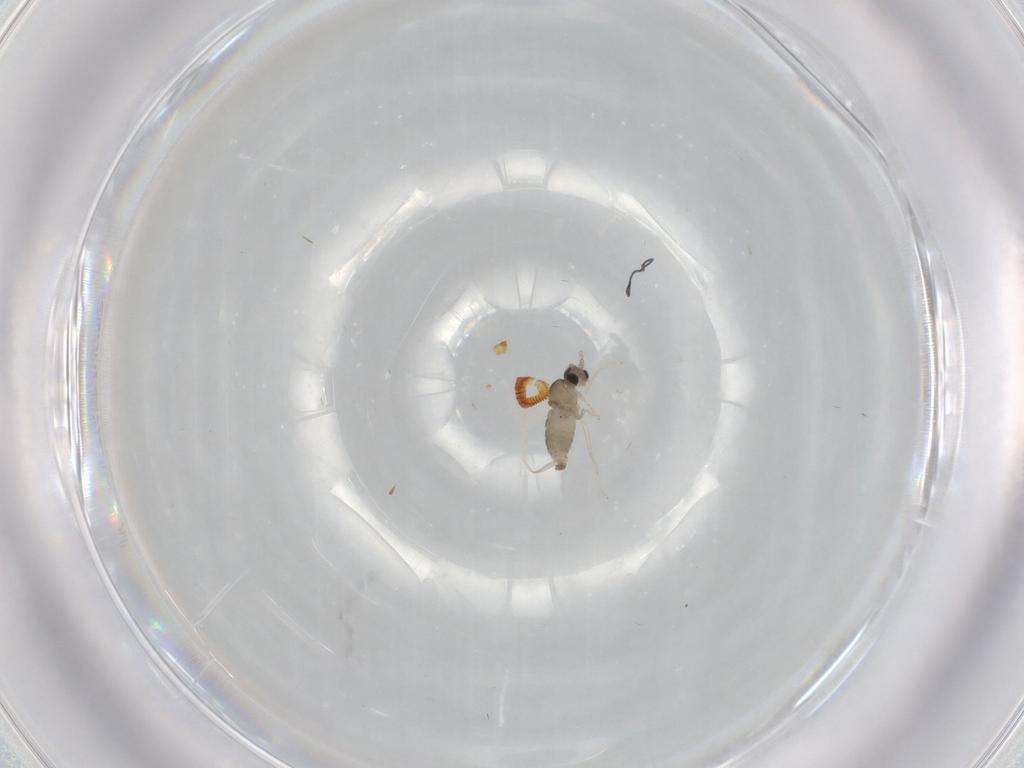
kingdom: Animalia
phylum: Arthropoda
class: Insecta
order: Diptera
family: Cecidomyiidae
